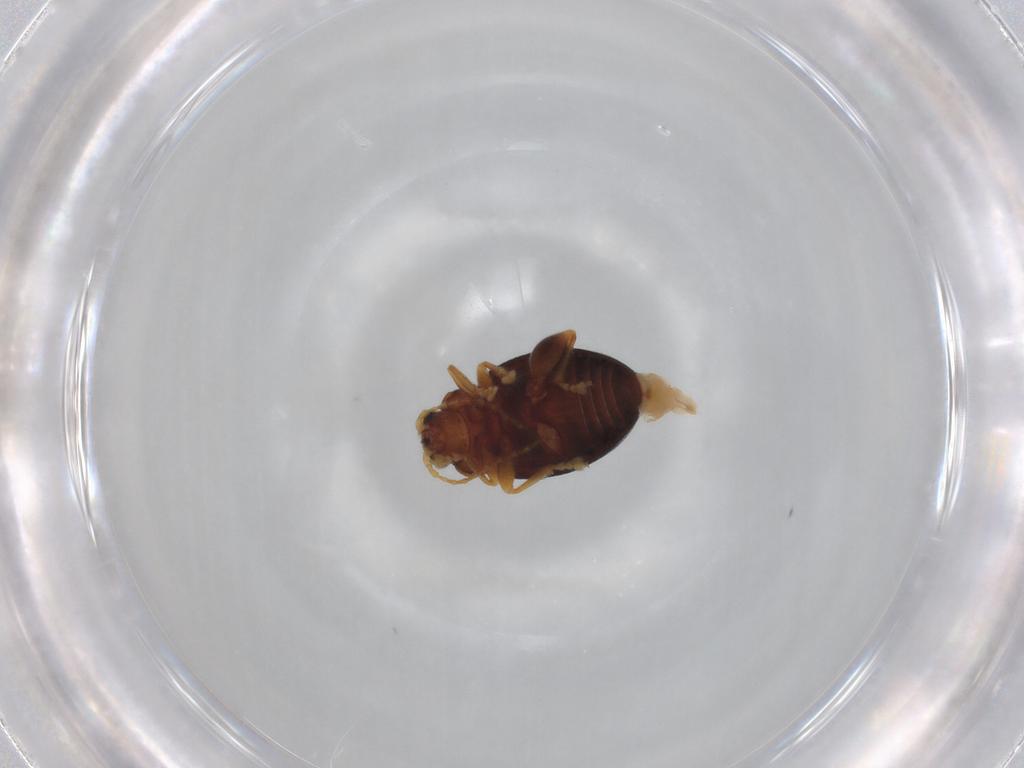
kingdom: Animalia
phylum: Arthropoda
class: Insecta
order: Coleoptera
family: Chrysomelidae
